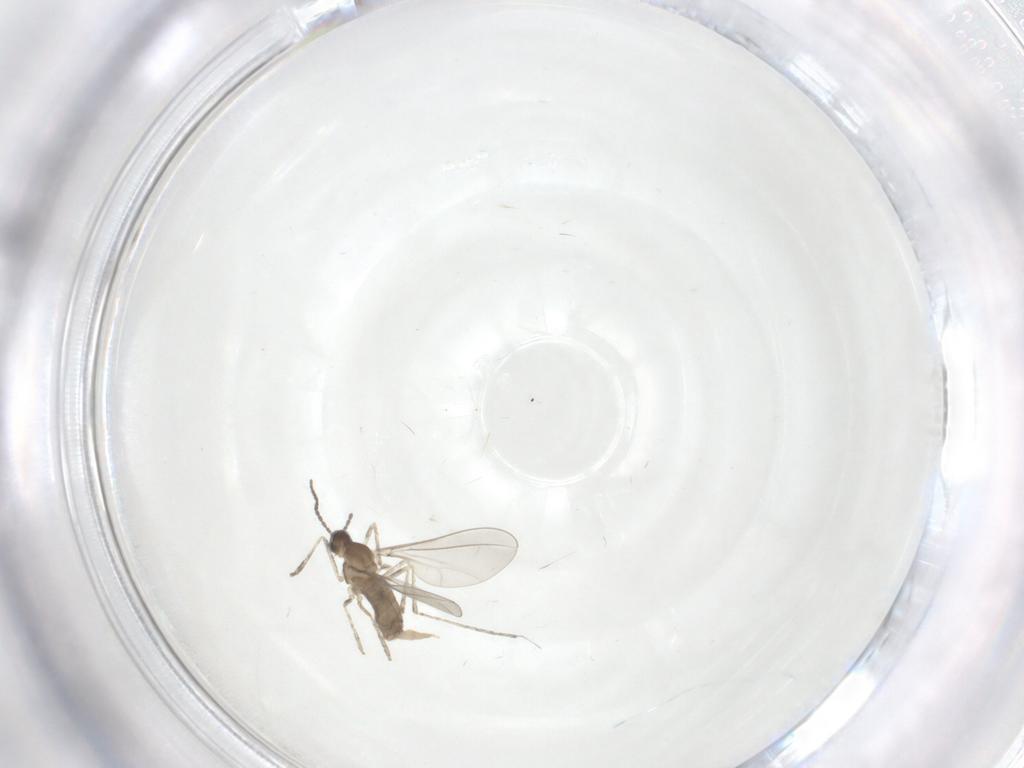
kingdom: Animalia
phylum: Arthropoda
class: Insecta
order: Diptera
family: Cecidomyiidae
